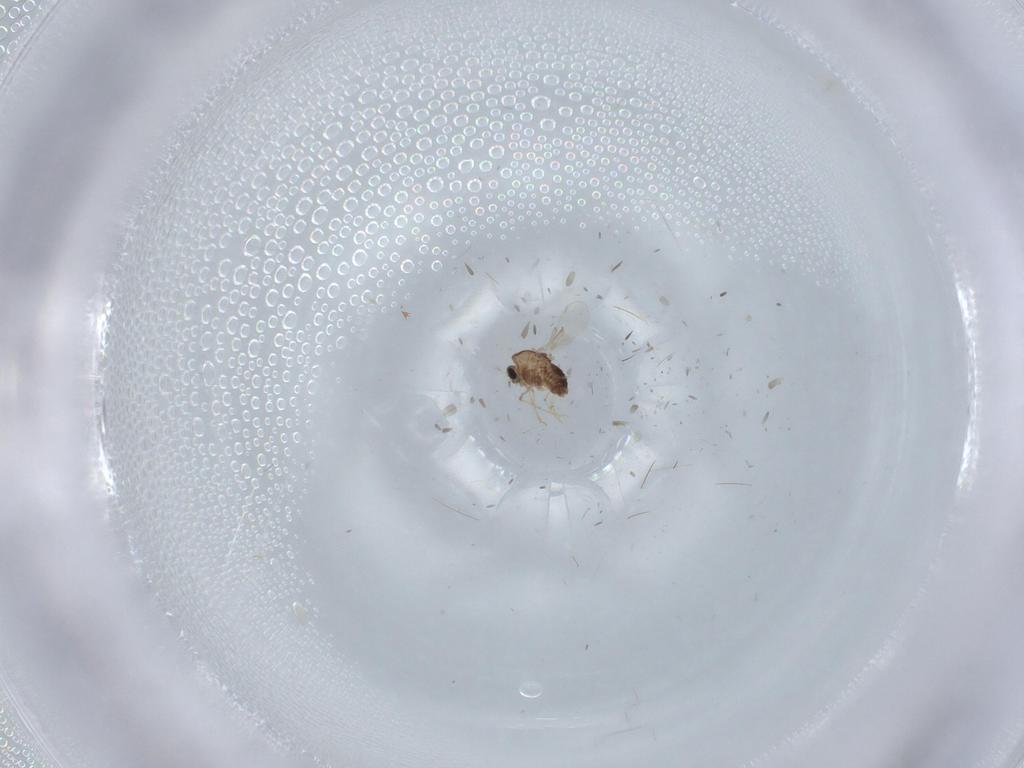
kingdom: Animalia
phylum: Arthropoda
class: Insecta
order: Diptera
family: Chironomidae
